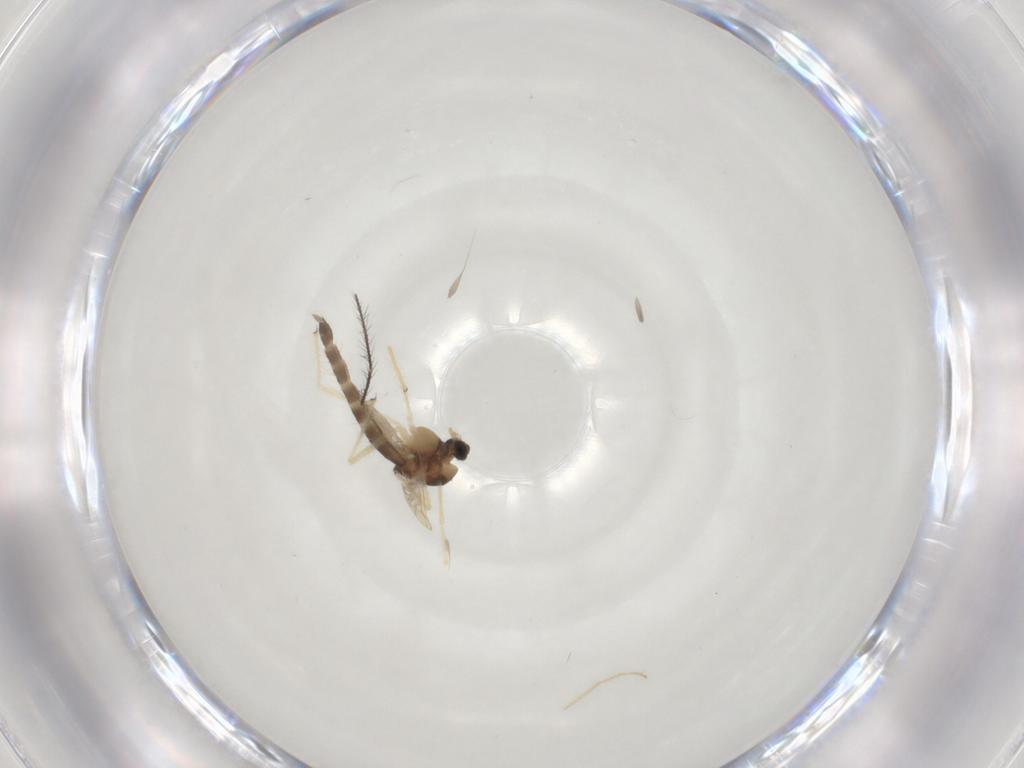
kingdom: Animalia
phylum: Arthropoda
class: Insecta
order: Diptera
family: Chironomidae
